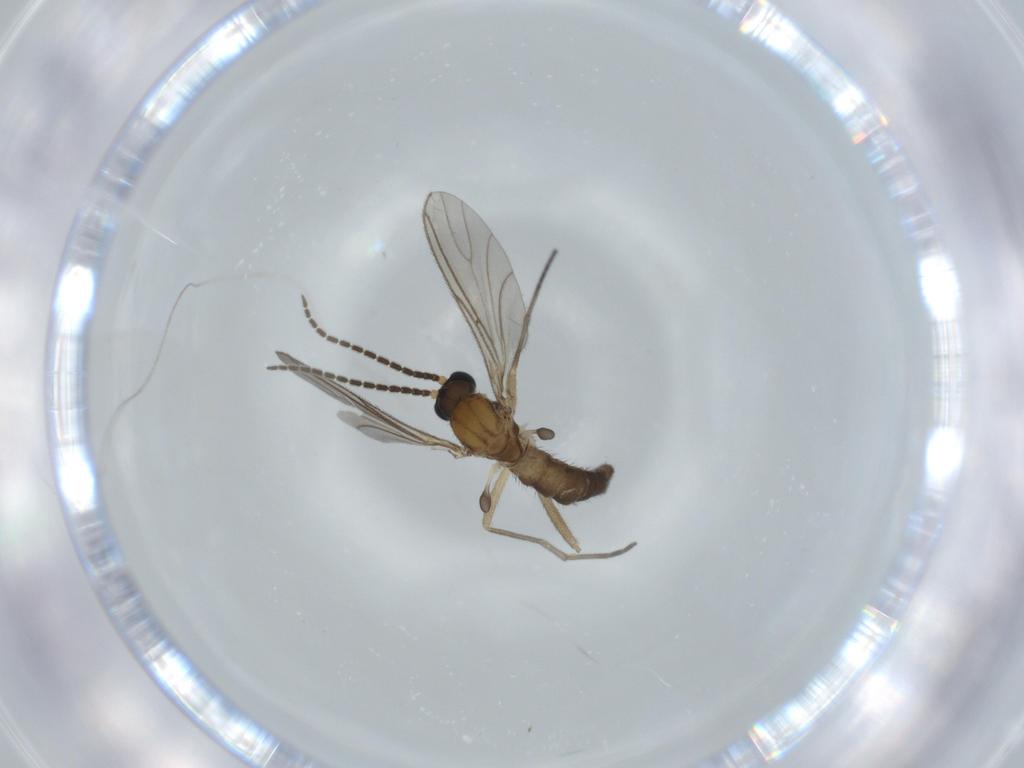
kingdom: Animalia
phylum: Arthropoda
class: Insecta
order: Diptera
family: Sciaridae
